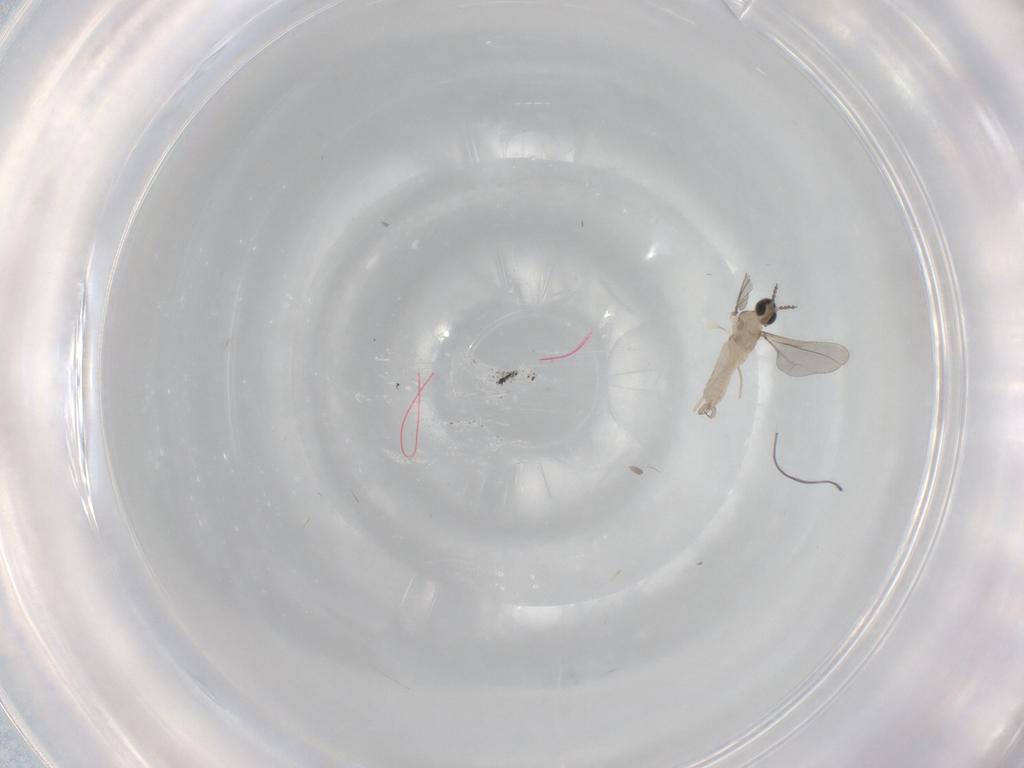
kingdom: Animalia
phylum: Arthropoda
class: Insecta
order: Diptera
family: Cecidomyiidae
